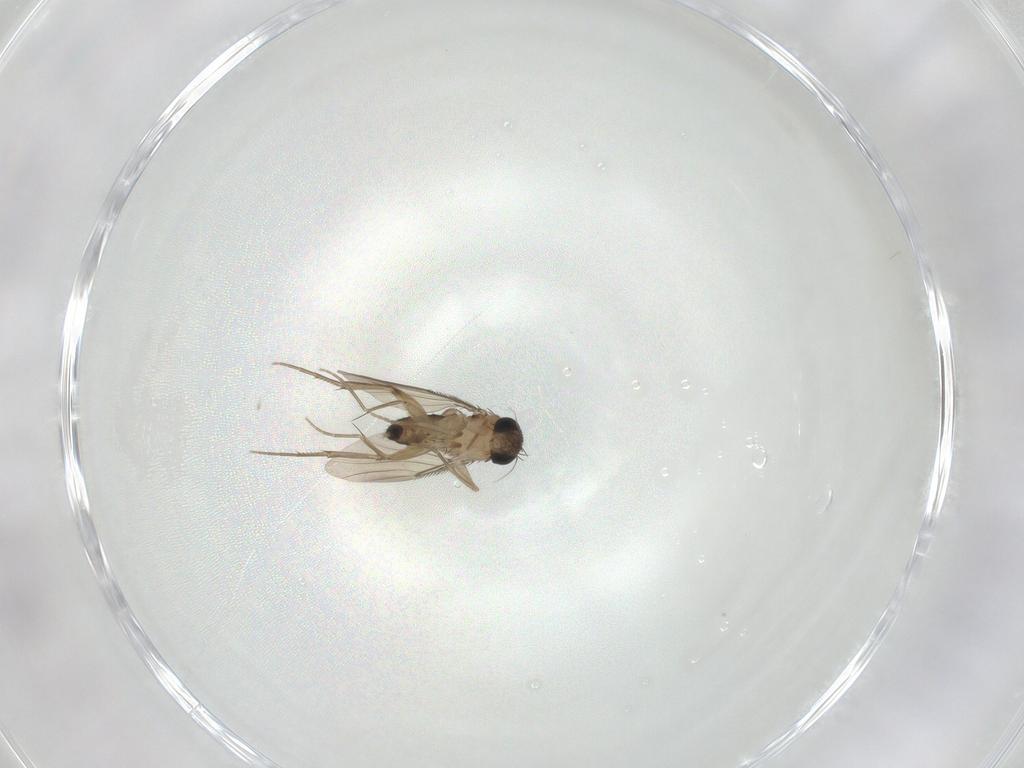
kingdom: Animalia
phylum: Arthropoda
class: Insecta
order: Diptera
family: Phoridae
